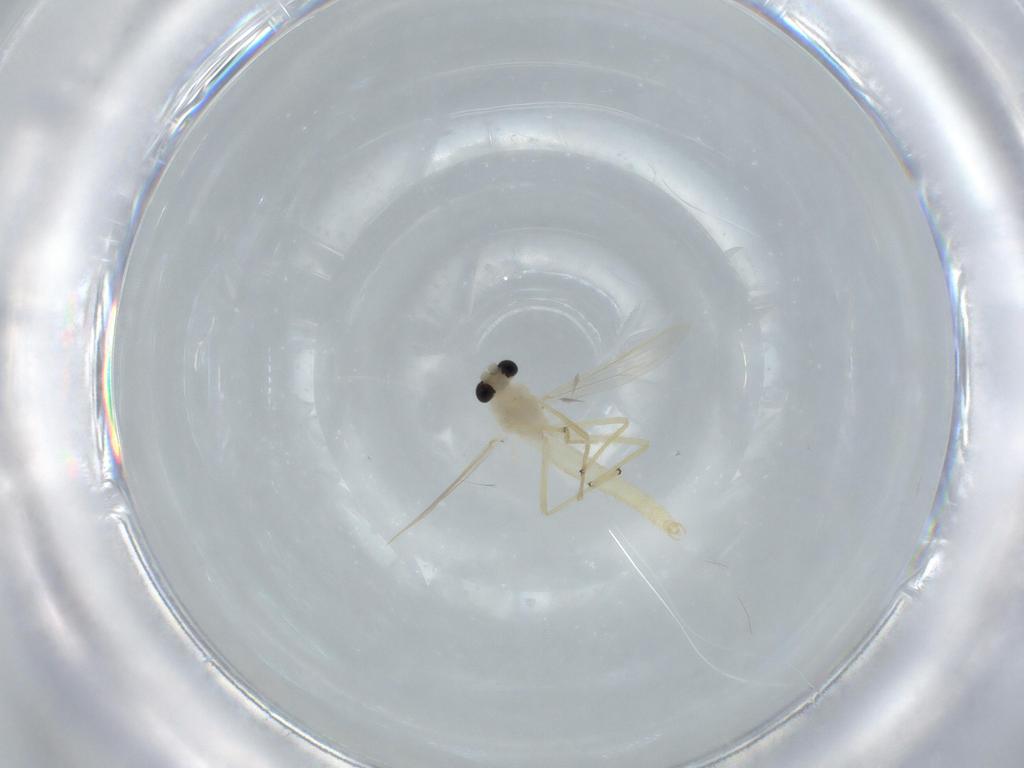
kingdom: Animalia
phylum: Arthropoda
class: Insecta
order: Diptera
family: Chironomidae
